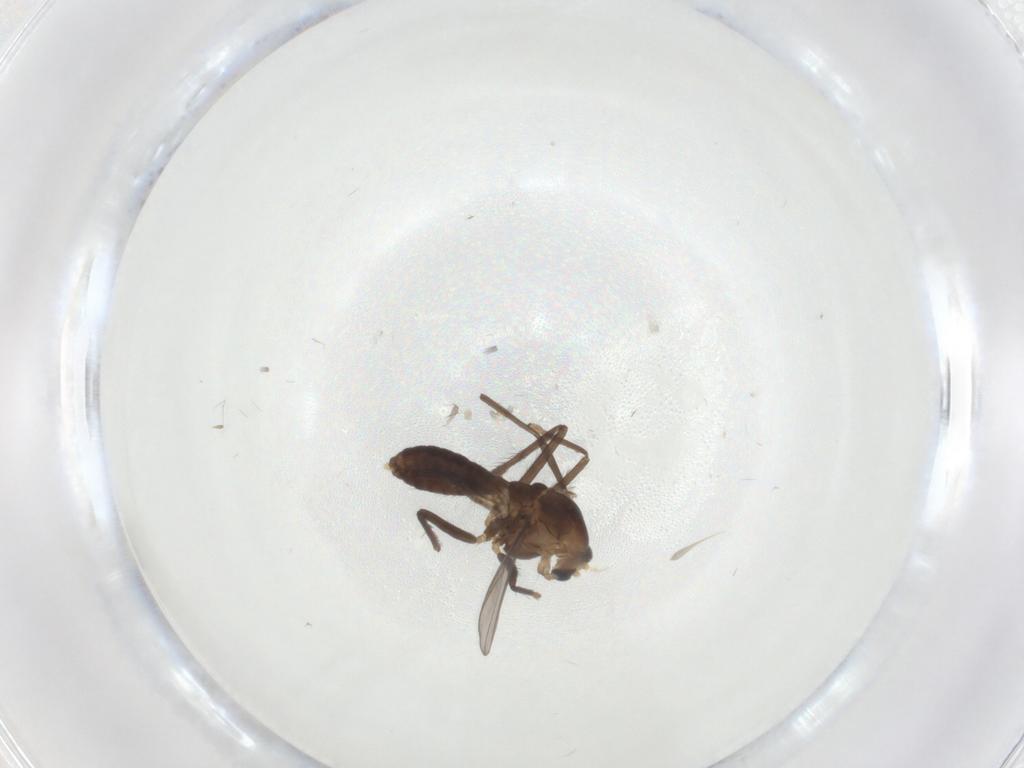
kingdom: Animalia
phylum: Arthropoda
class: Insecta
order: Diptera
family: Chironomidae
